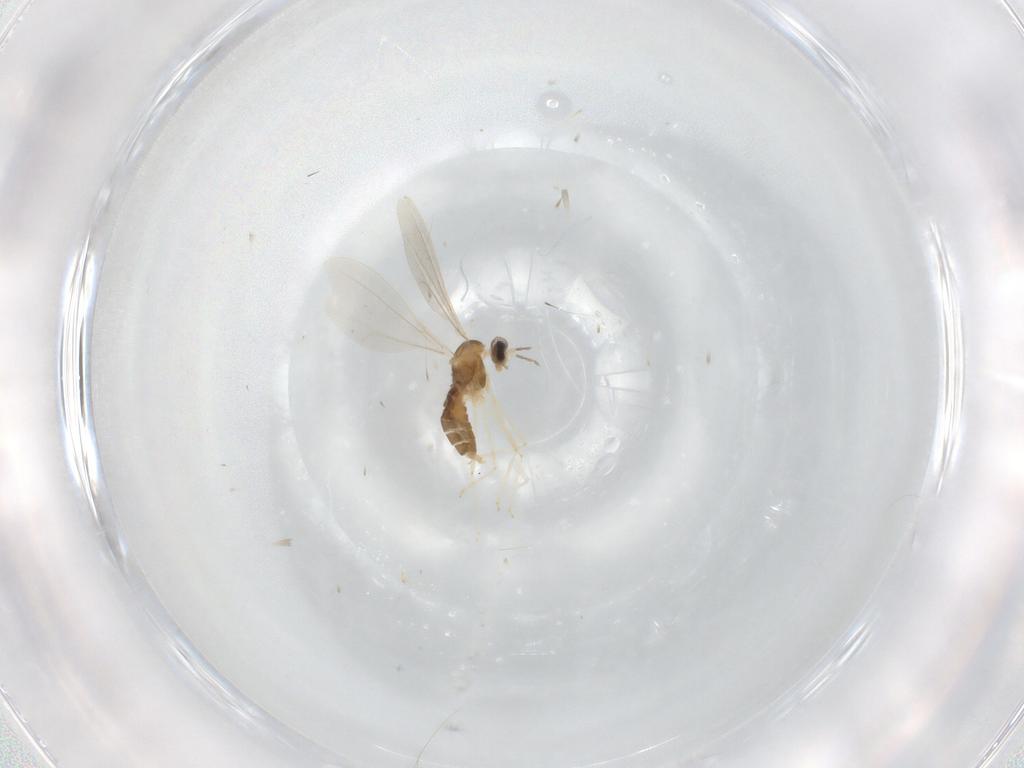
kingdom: Animalia
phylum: Arthropoda
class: Insecta
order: Diptera
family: Cecidomyiidae
